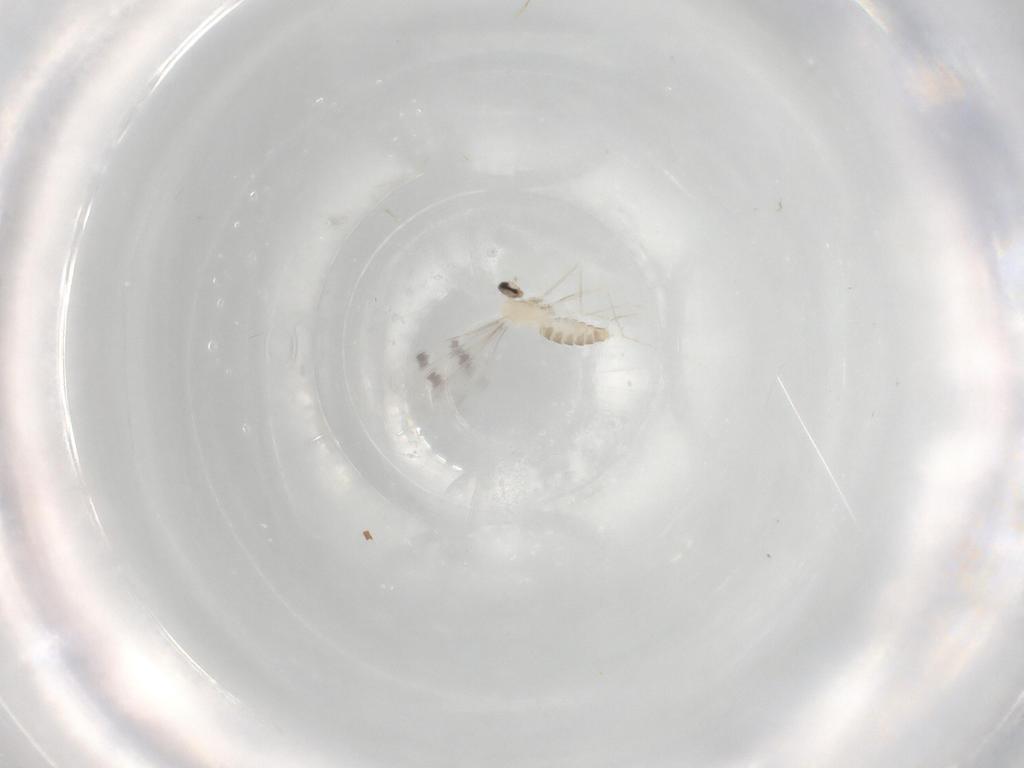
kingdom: Animalia
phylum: Arthropoda
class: Insecta
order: Diptera
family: Cecidomyiidae
